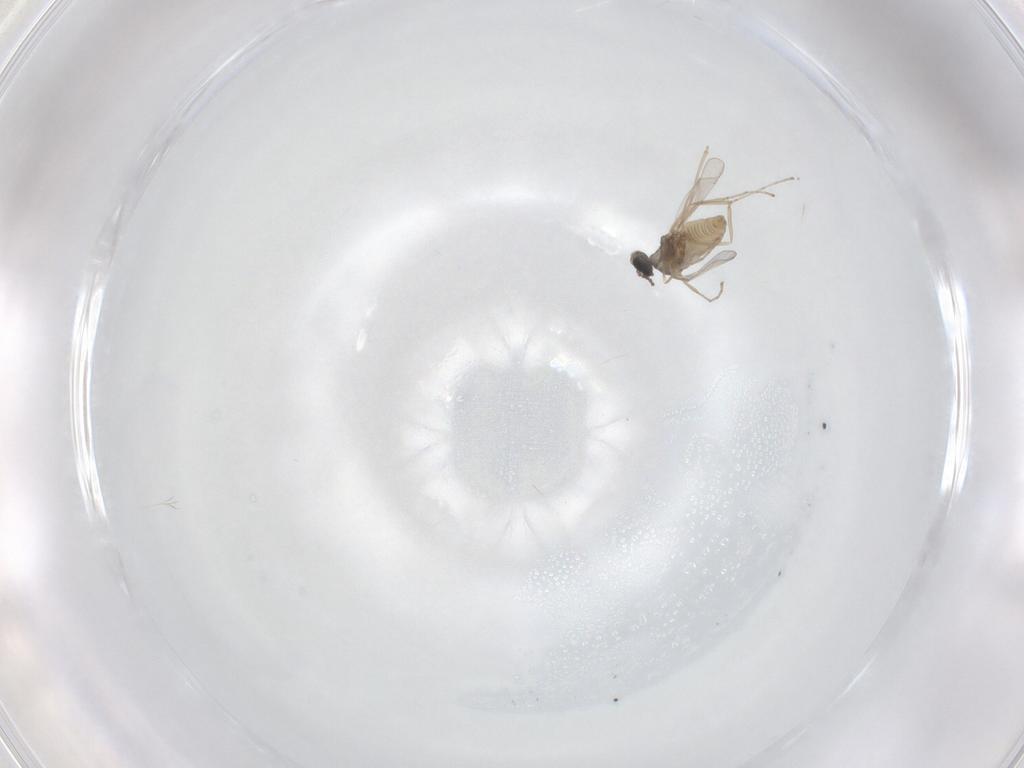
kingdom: Animalia
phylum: Arthropoda
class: Insecta
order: Diptera
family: Cecidomyiidae
